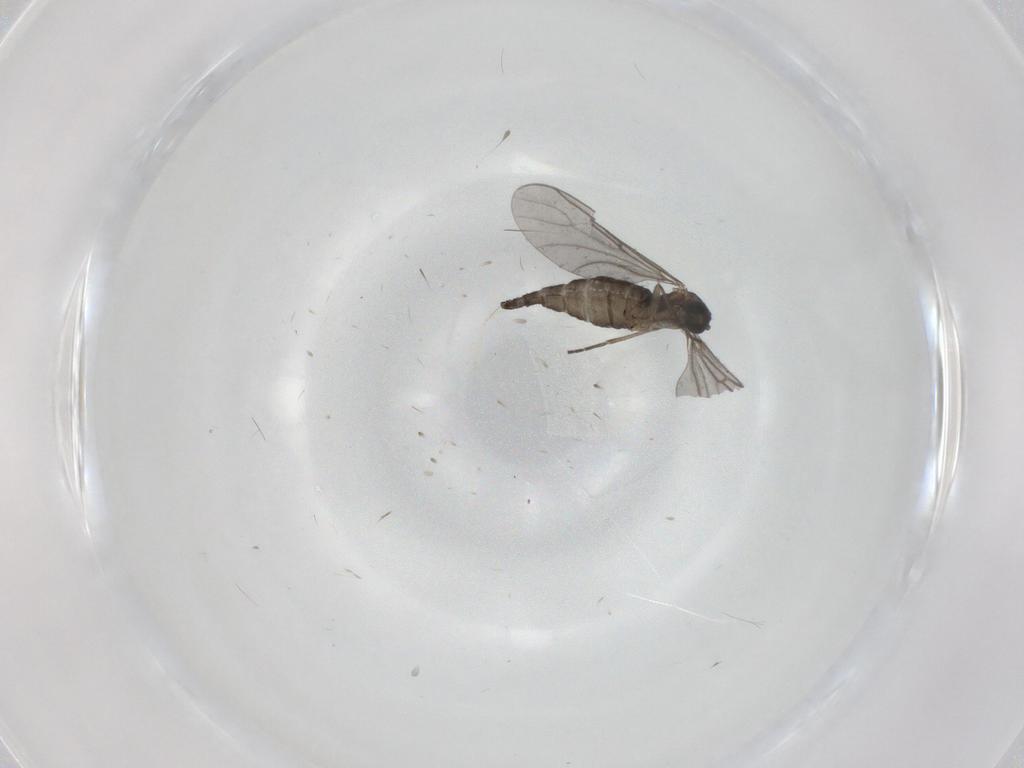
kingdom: Animalia
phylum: Arthropoda
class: Insecta
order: Diptera
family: Sciaridae
